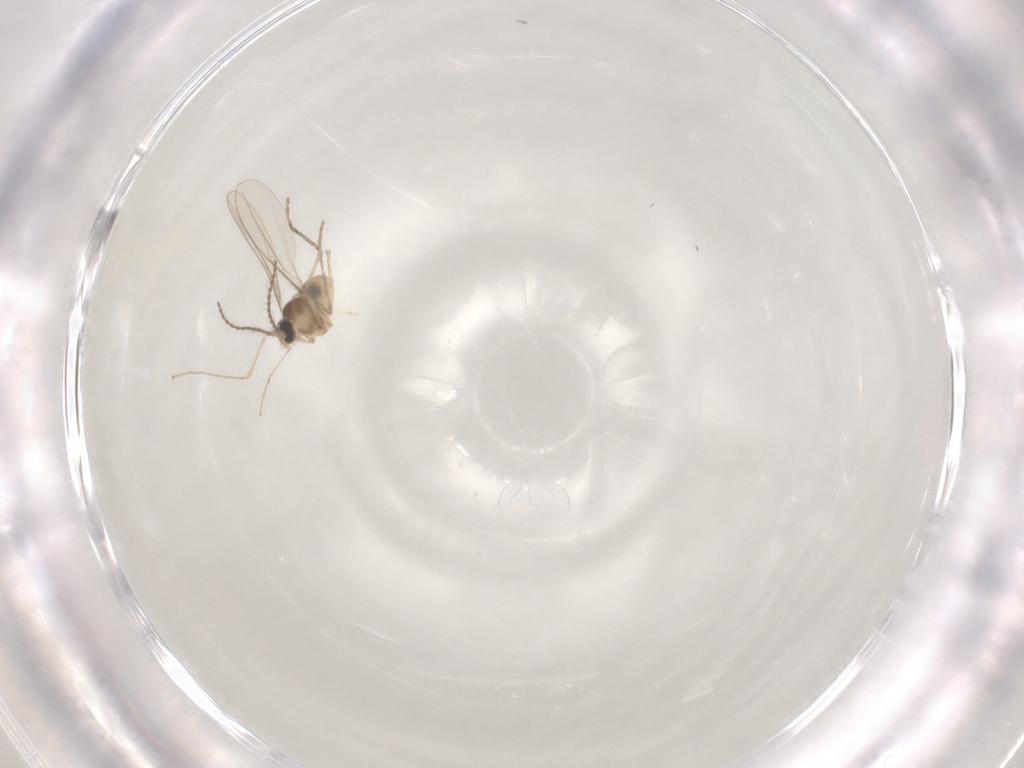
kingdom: Animalia
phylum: Arthropoda
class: Insecta
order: Diptera
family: Cecidomyiidae
